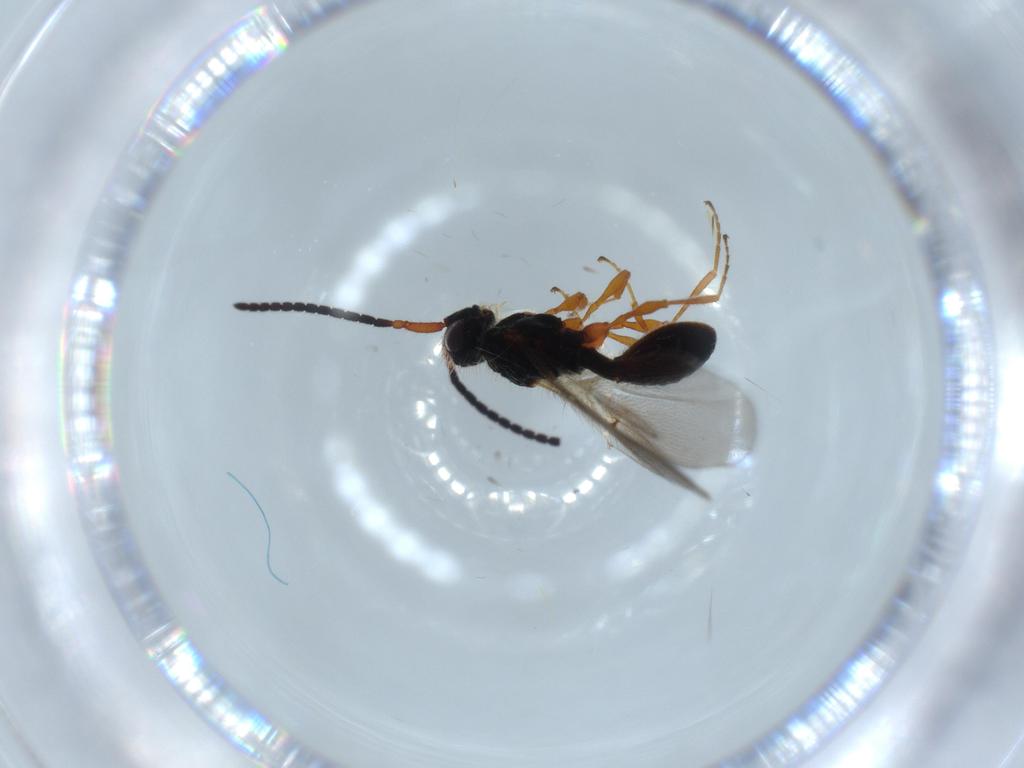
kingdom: Animalia
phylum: Arthropoda
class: Insecta
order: Hymenoptera
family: Diapriidae
